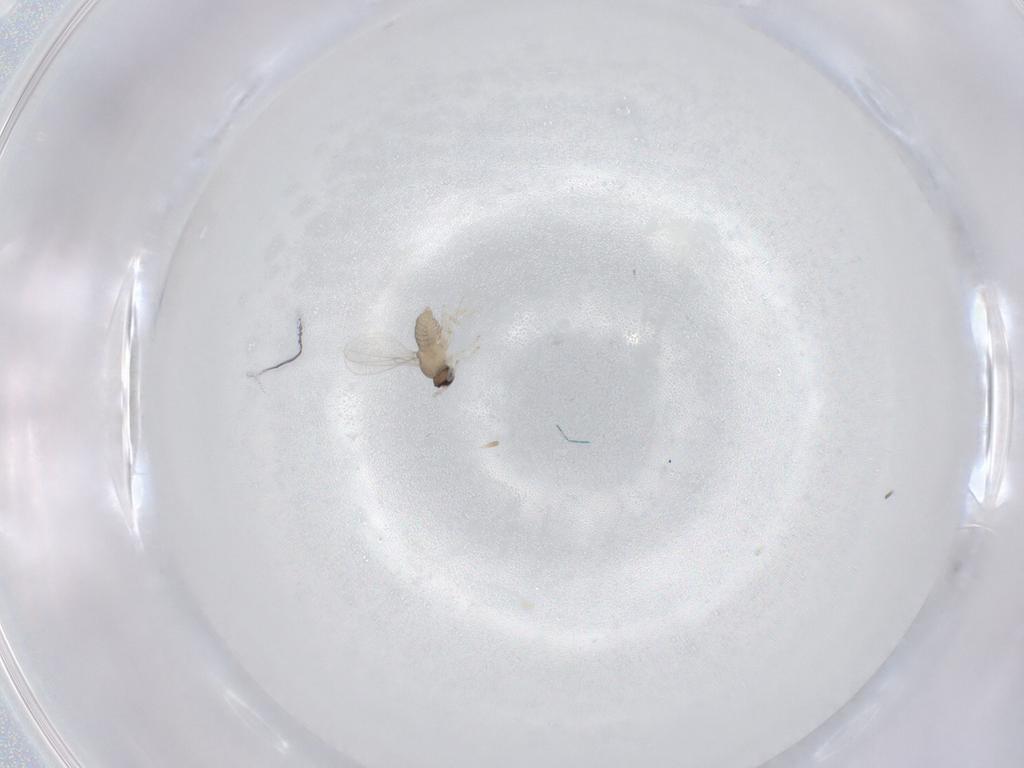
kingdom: Animalia
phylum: Arthropoda
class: Insecta
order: Diptera
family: Cecidomyiidae
